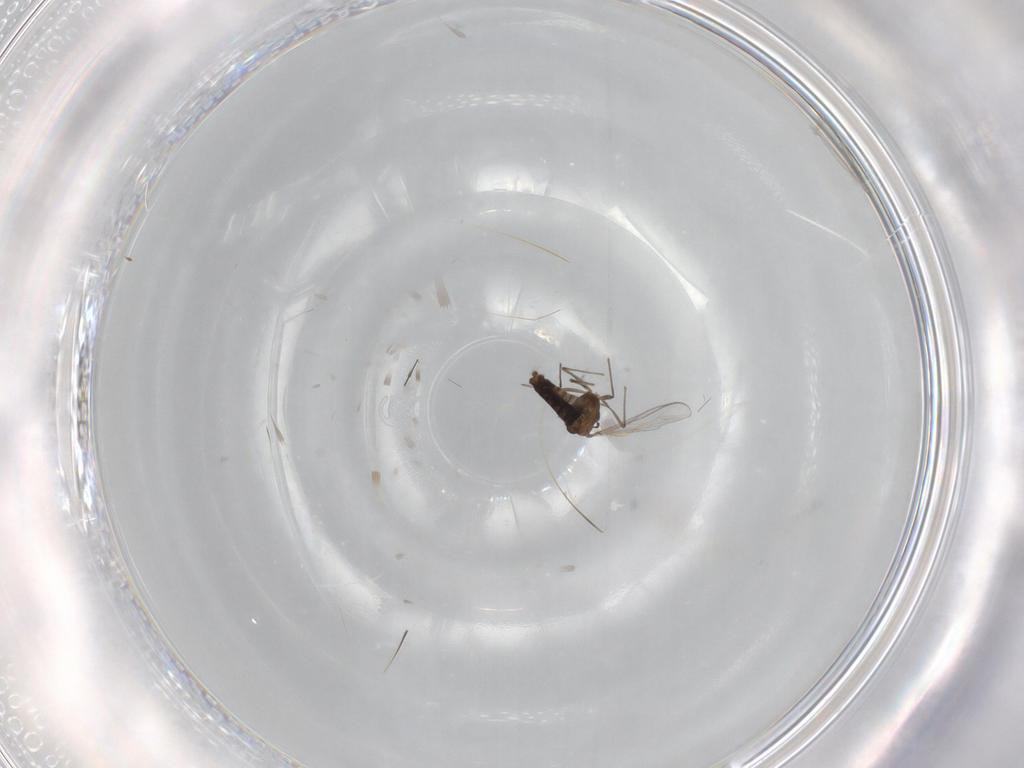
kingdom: Animalia
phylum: Arthropoda
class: Insecta
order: Diptera
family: Chironomidae
